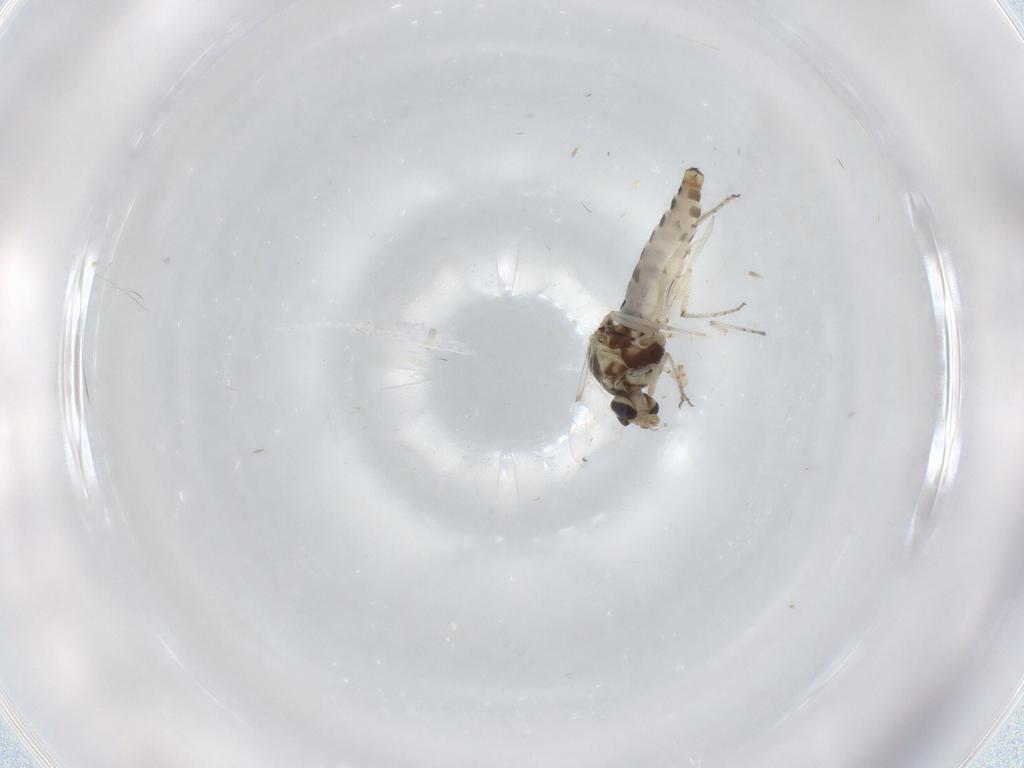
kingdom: Animalia
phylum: Arthropoda
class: Insecta
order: Diptera
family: Ceratopogonidae
